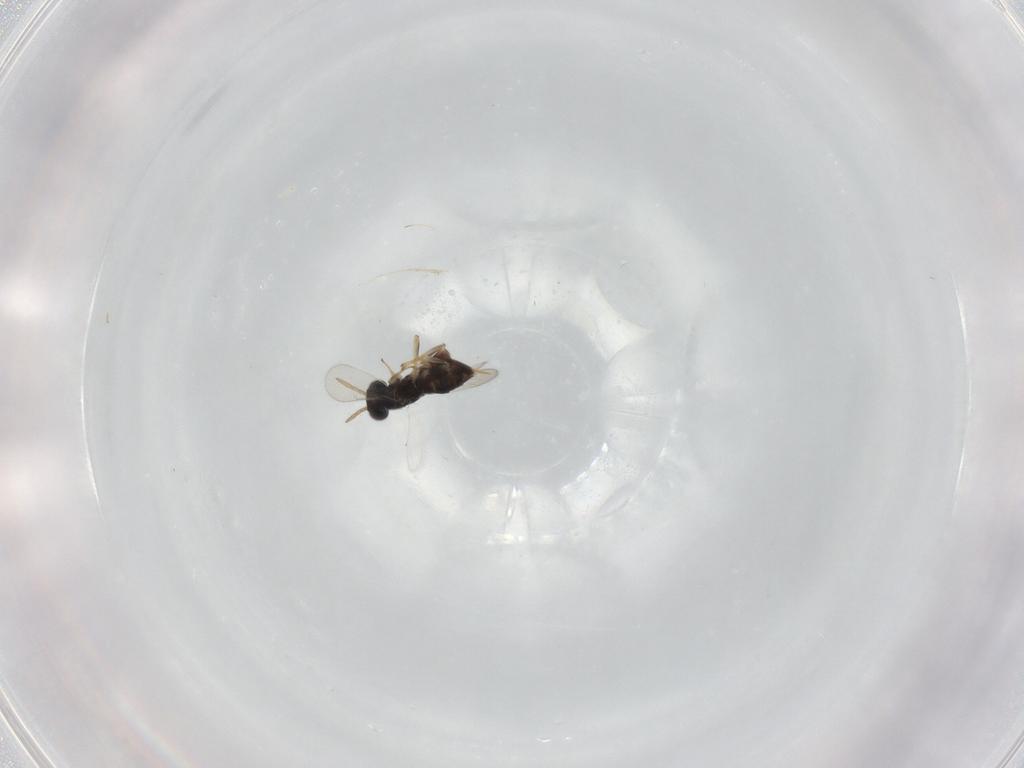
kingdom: Animalia
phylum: Arthropoda
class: Insecta
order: Hymenoptera
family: Aphelinidae
